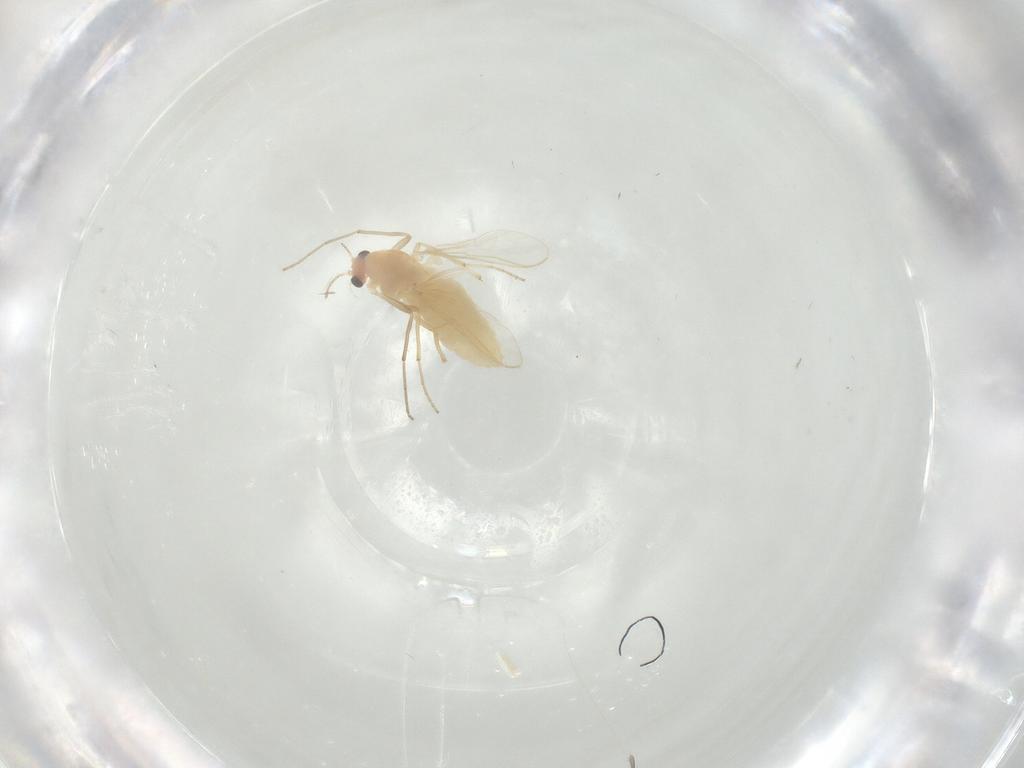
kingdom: Animalia
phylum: Arthropoda
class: Insecta
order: Diptera
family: Chironomidae
